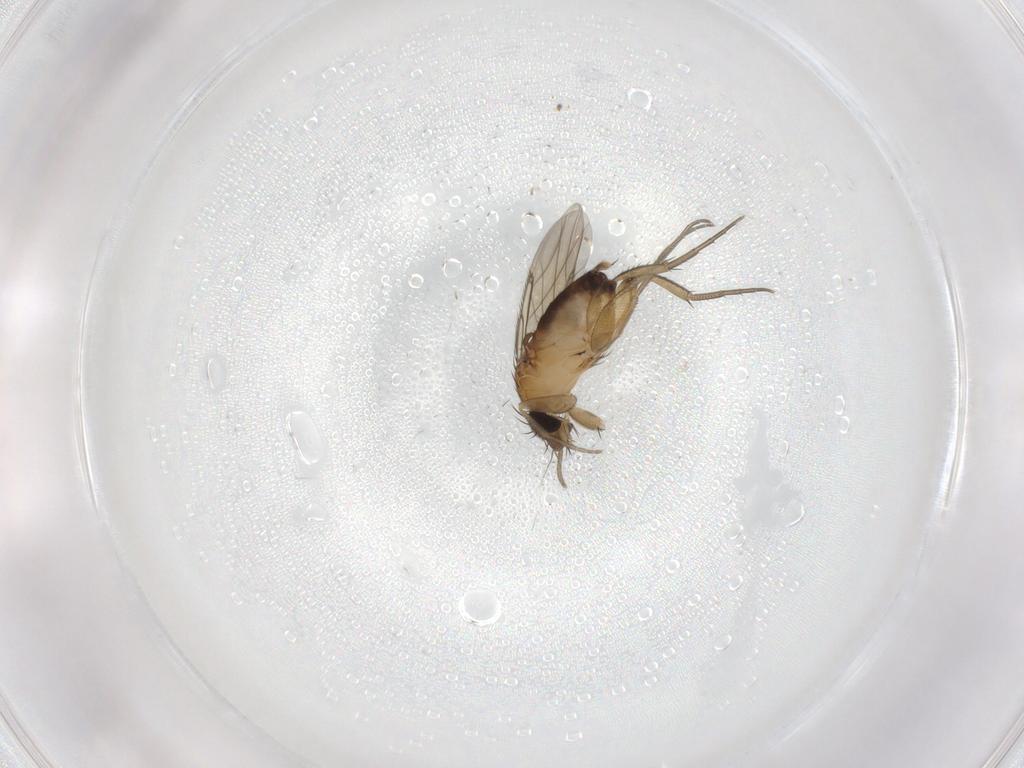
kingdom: Animalia
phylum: Arthropoda
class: Insecta
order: Diptera
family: Phoridae
